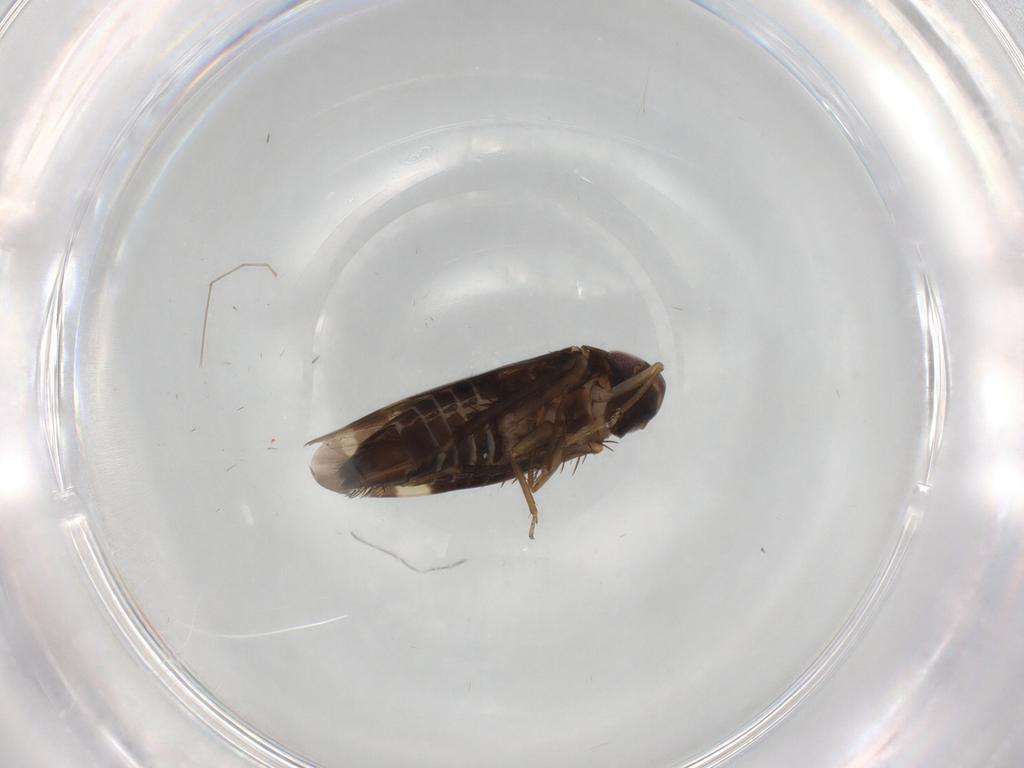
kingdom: Animalia
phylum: Arthropoda
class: Insecta
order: Hemiptera
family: Cicadellidae
